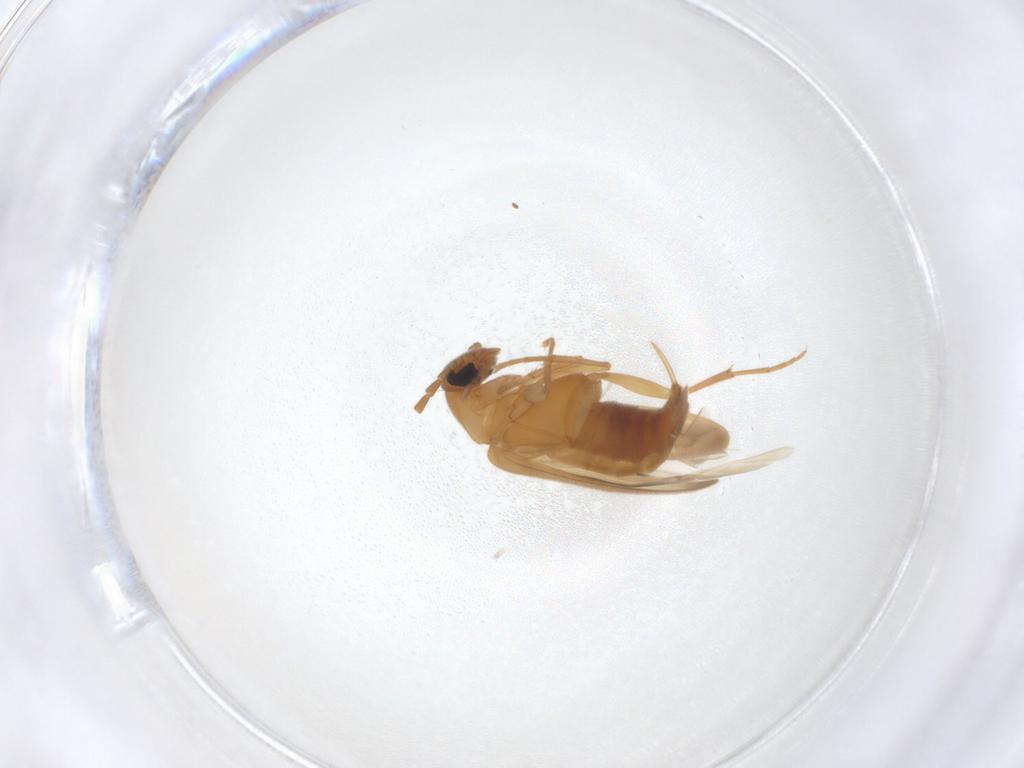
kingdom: Animalia
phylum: Arthropoda
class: Insecta
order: Coleoptera
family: Scraptiidae
